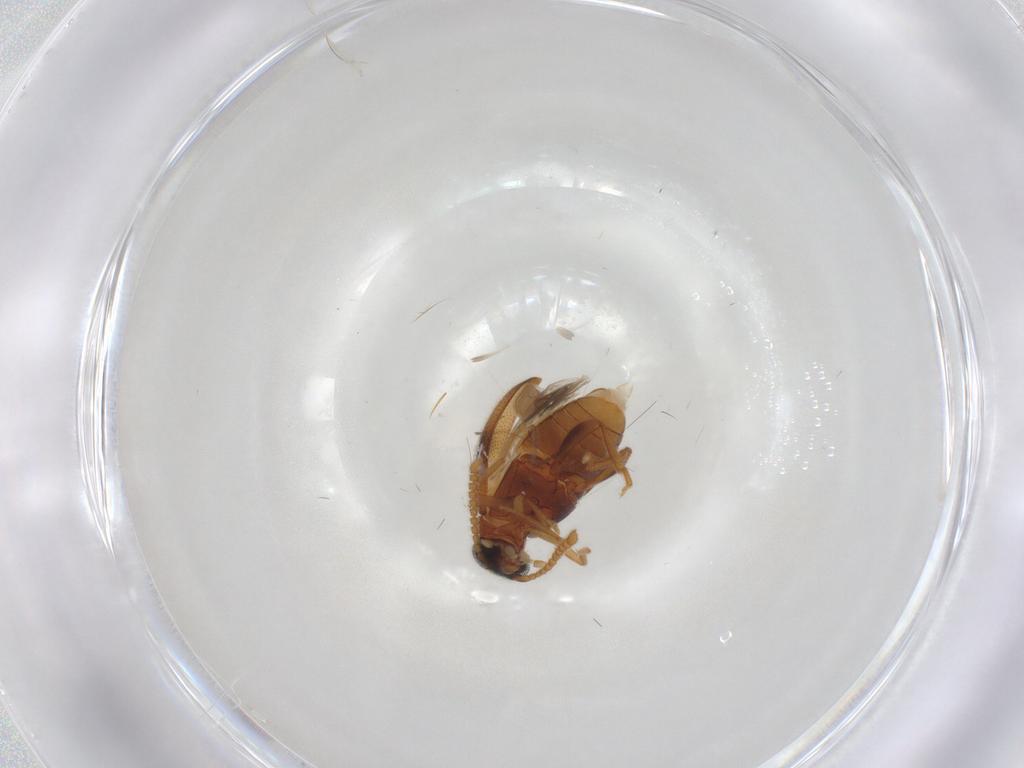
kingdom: Animalia
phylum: Arthropoda
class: Insecta
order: Coleoptera
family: Aderidae
